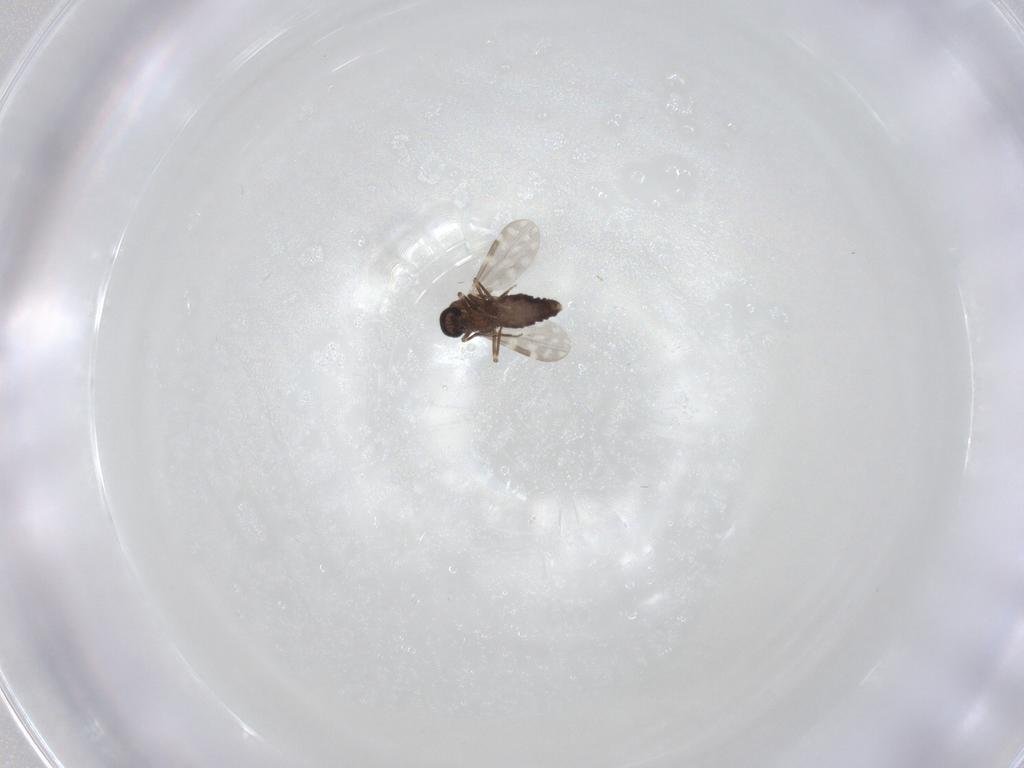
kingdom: Animalia
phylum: Arthropoda
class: Insecta
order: Diptera
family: Ceratopogonidae
